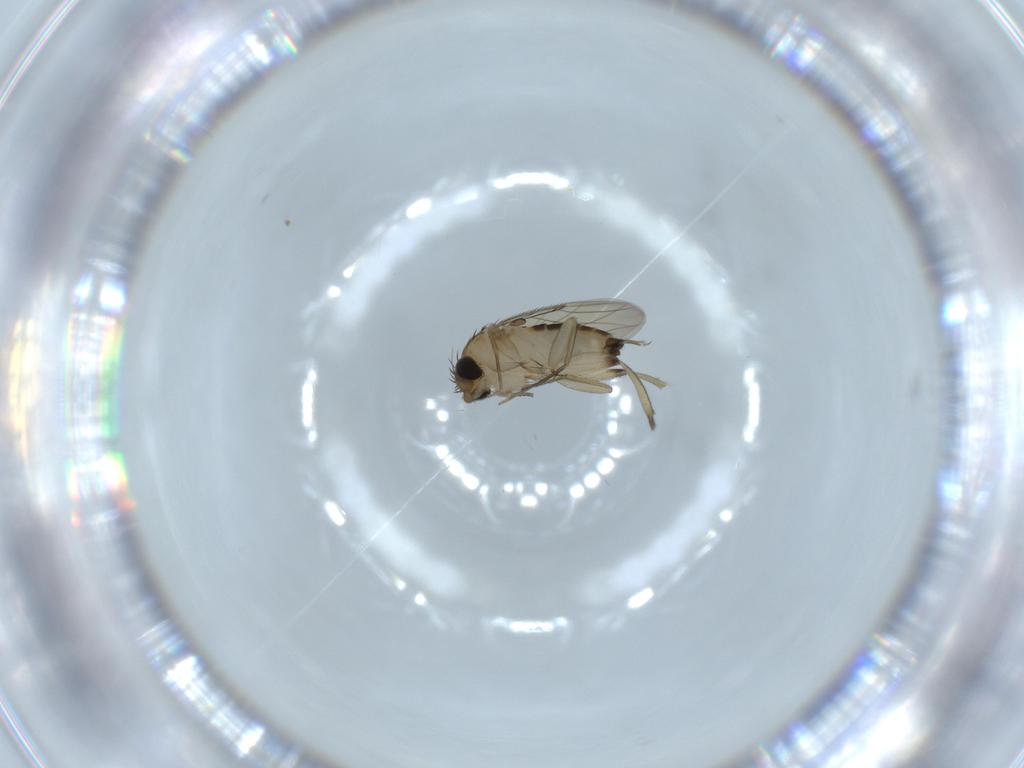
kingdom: Animalia
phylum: Arthropoda
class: Insecta
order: Diptera
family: Phoridae
